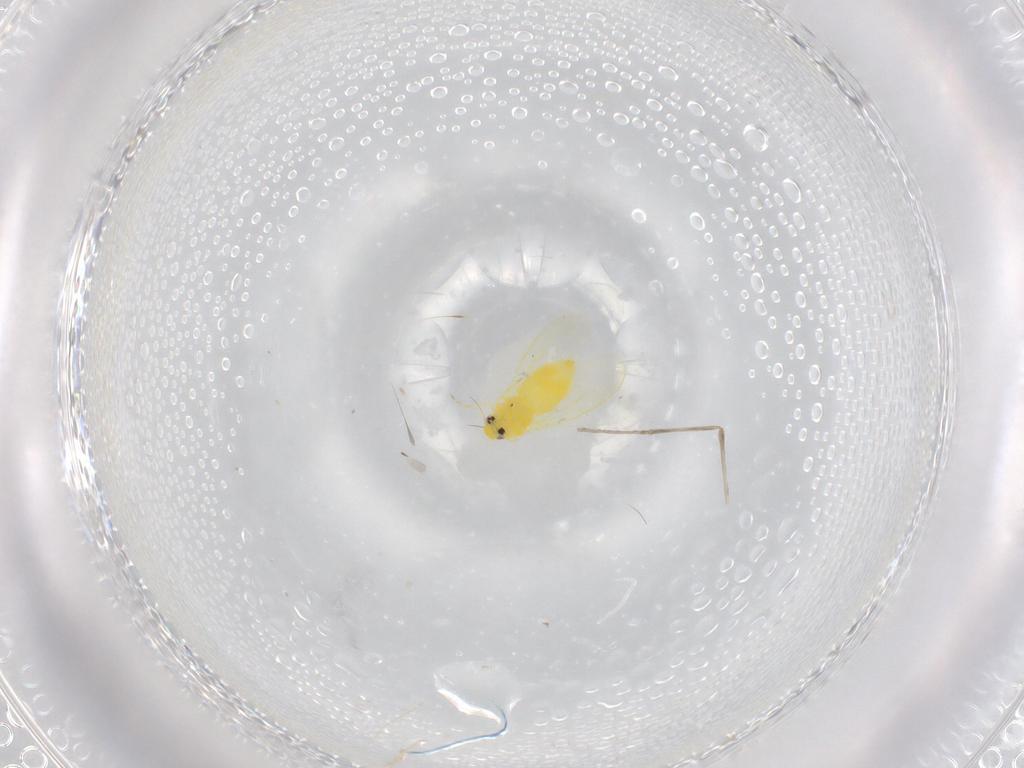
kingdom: Animalia
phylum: Arthropoda
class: Insecta
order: Hemiptera
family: Aleyrodidae
